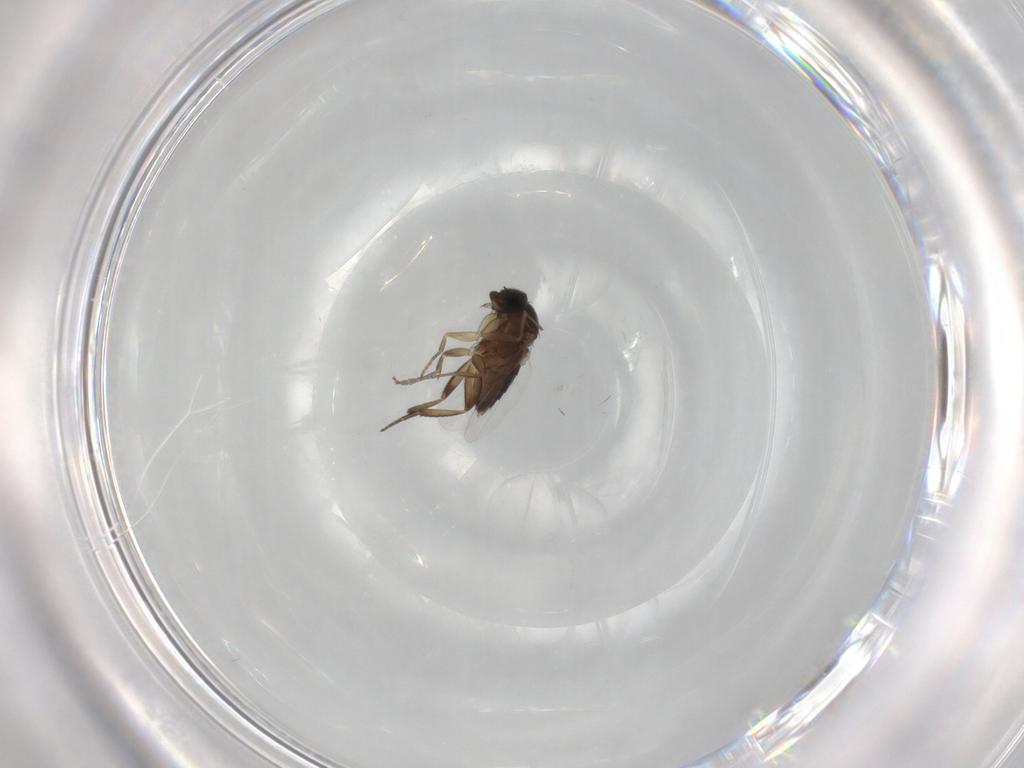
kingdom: Animalia
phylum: Arthropoda
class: Insecta
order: Diptera
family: Phoridae
